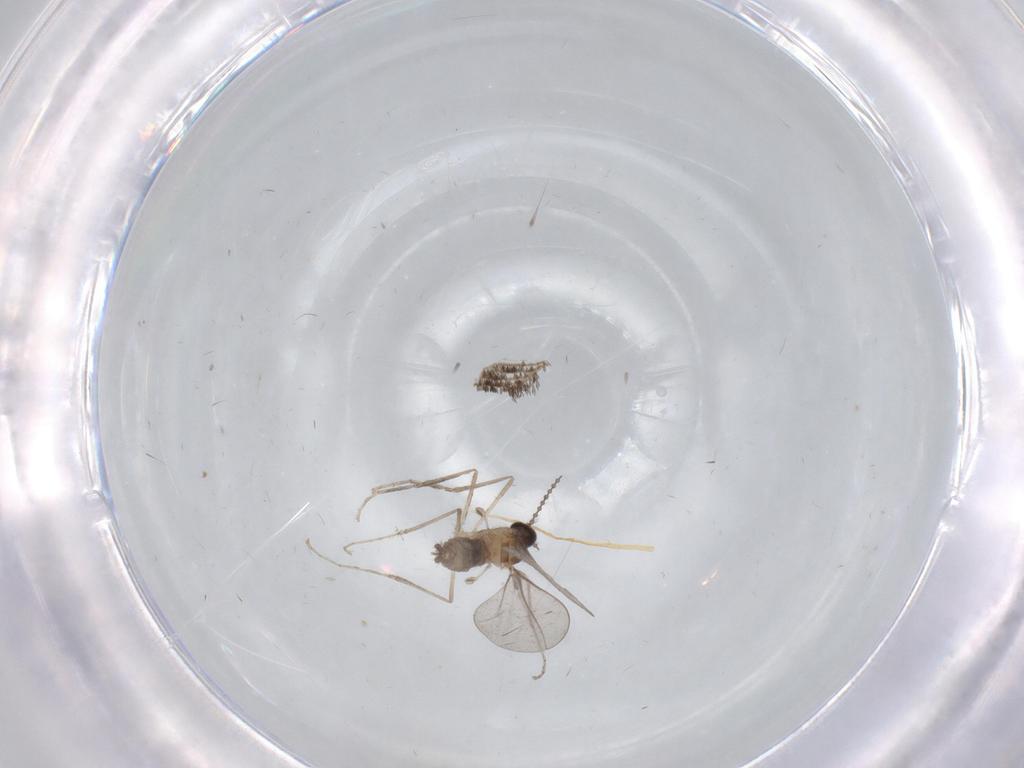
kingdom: Animalia
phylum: Arthropoda
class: Insecta
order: Diptera
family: Cecidomyiidae
